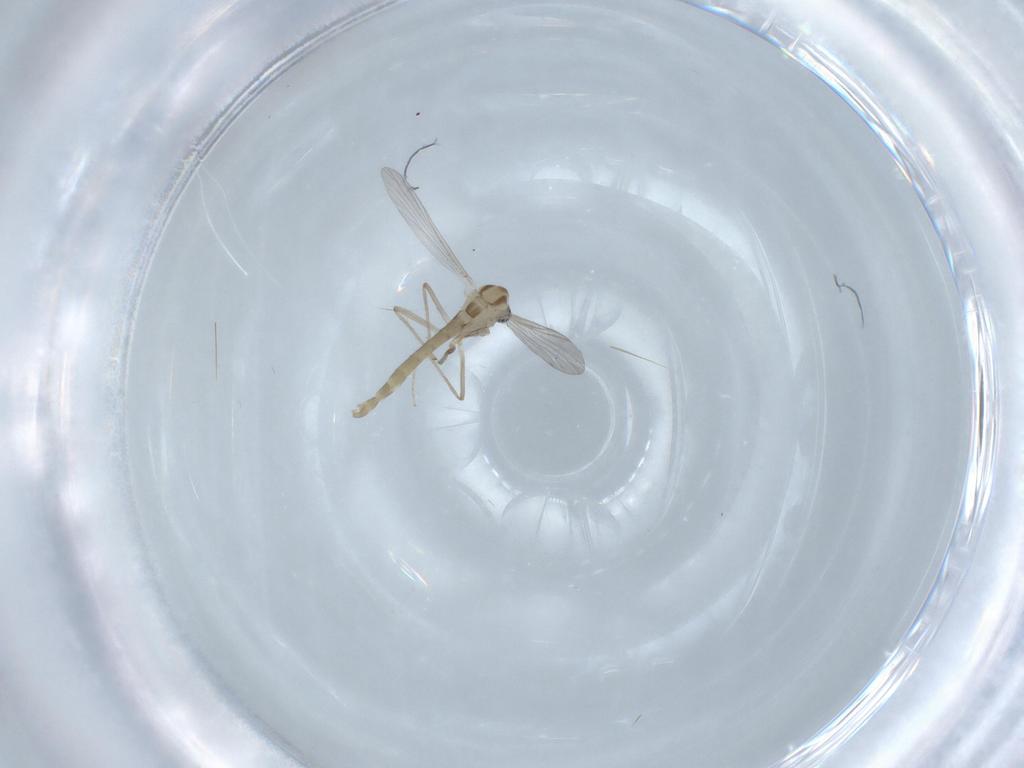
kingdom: Animalia
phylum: Arthropoda
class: Insecta
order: Diptera
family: Chironomidae
